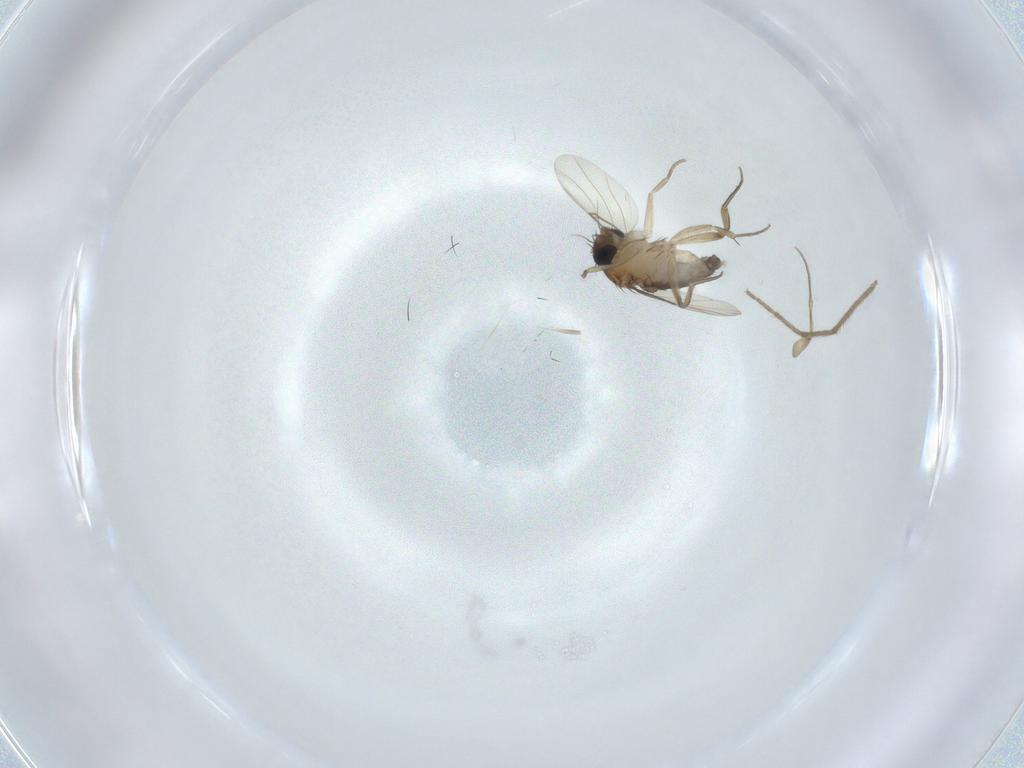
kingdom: Animalia
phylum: Arthropoda
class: Insecta
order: Diptera
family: Phoridae
